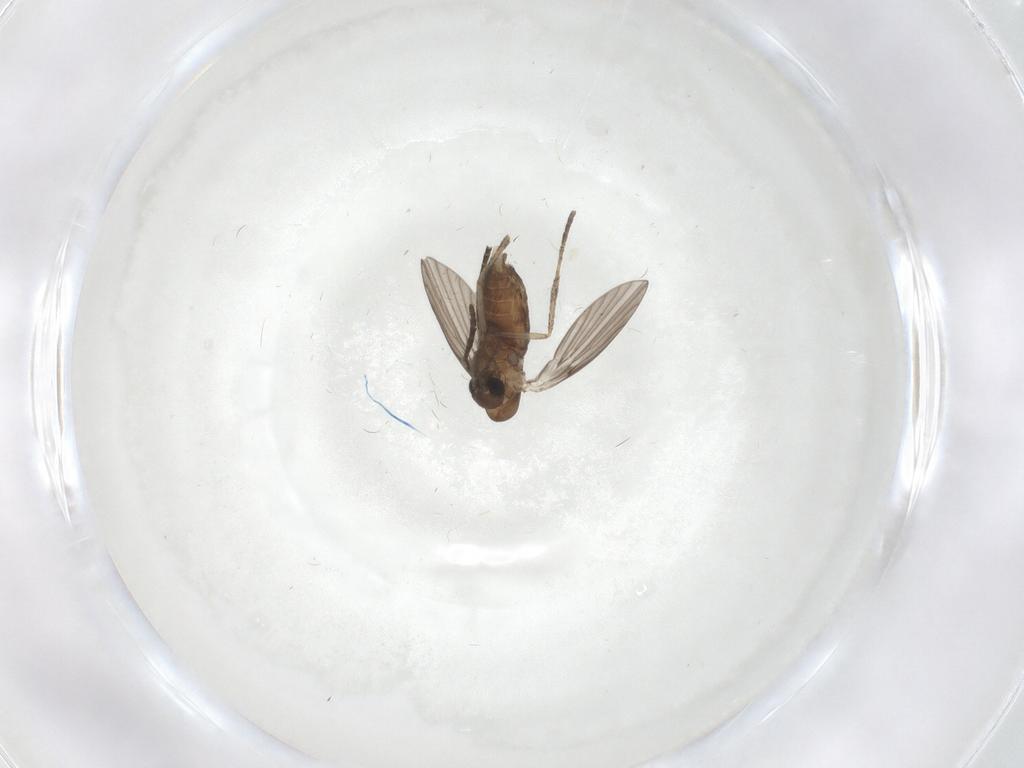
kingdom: Animalia
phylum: Arthropoda
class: Insecta
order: Diptera
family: Psychodidae
